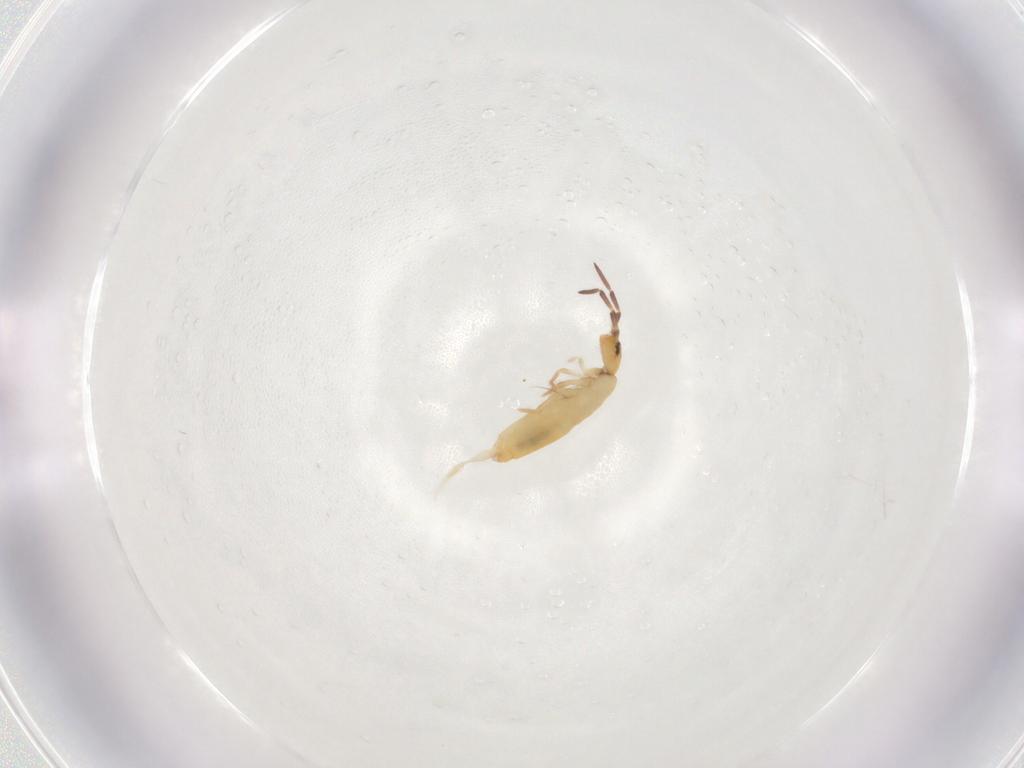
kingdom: Animalia
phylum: Arthropoda
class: Collembola
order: Entomobryomorpha
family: Entomobryidae
